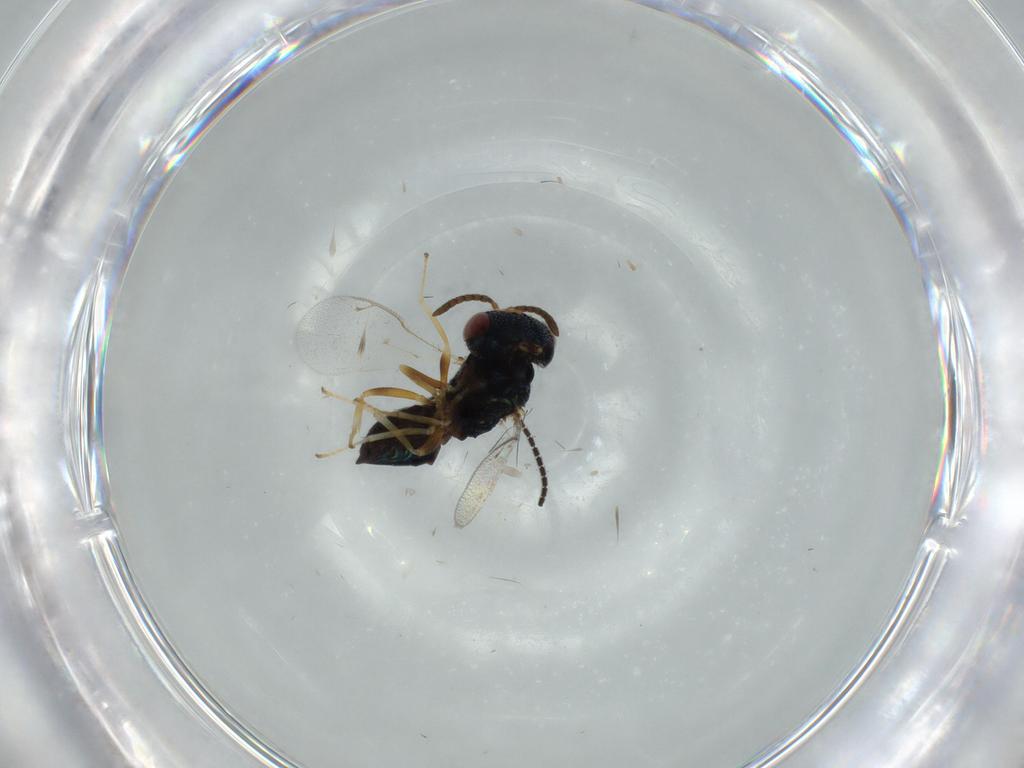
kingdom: Animalia
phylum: Arthropoda
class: Insecta
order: Hymenoptera
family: Eupelmidae
